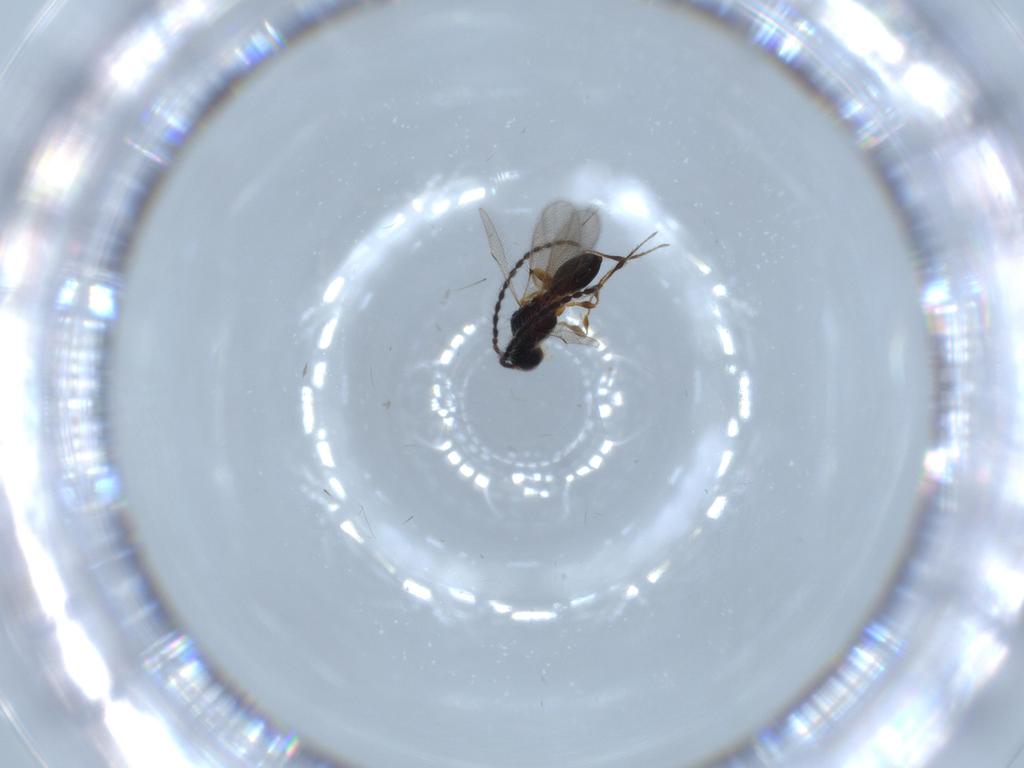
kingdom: Animalia
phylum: Arthropoda
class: Insecta
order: Hymenoptera
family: Diapriidae
